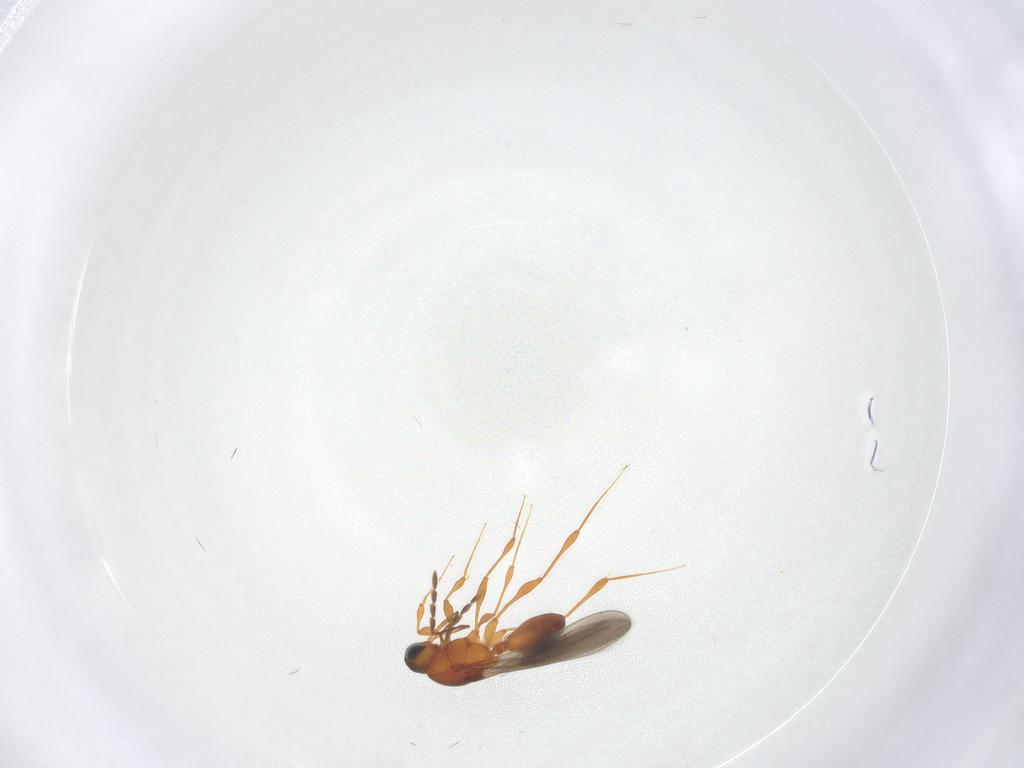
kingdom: Animalia
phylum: Arthropoda
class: Insecta
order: Hymenoptera
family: Platygastridae
